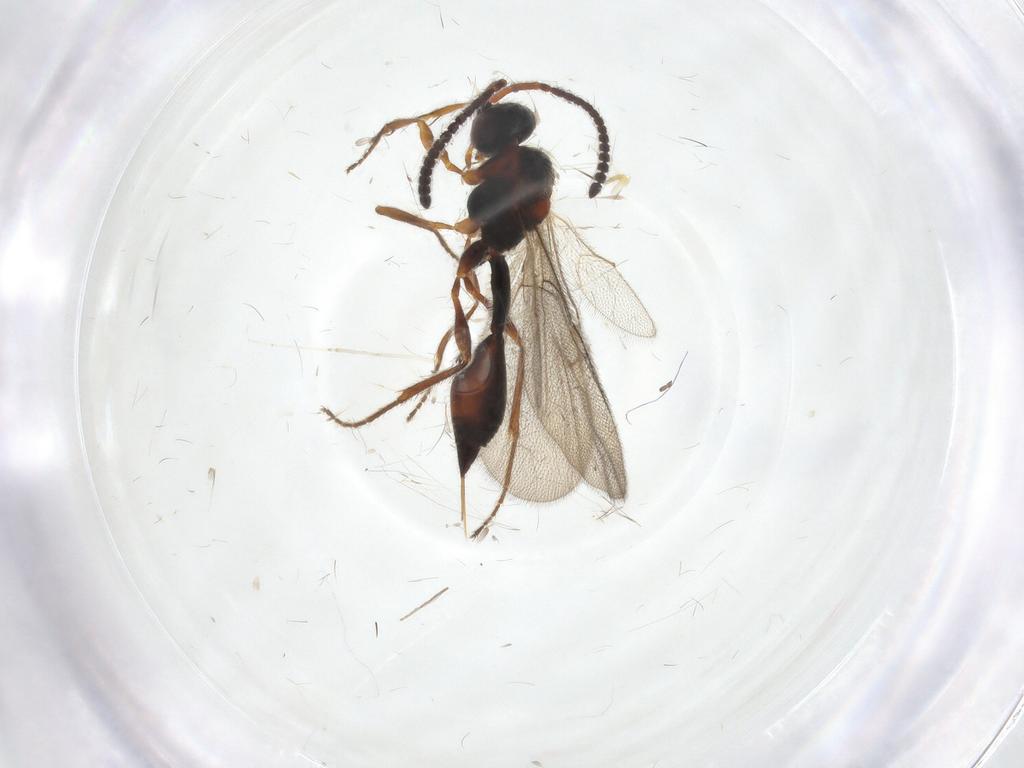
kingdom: Animalia
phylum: Arthropoda
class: Insecta
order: Hymenoptera
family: Diapriidae
